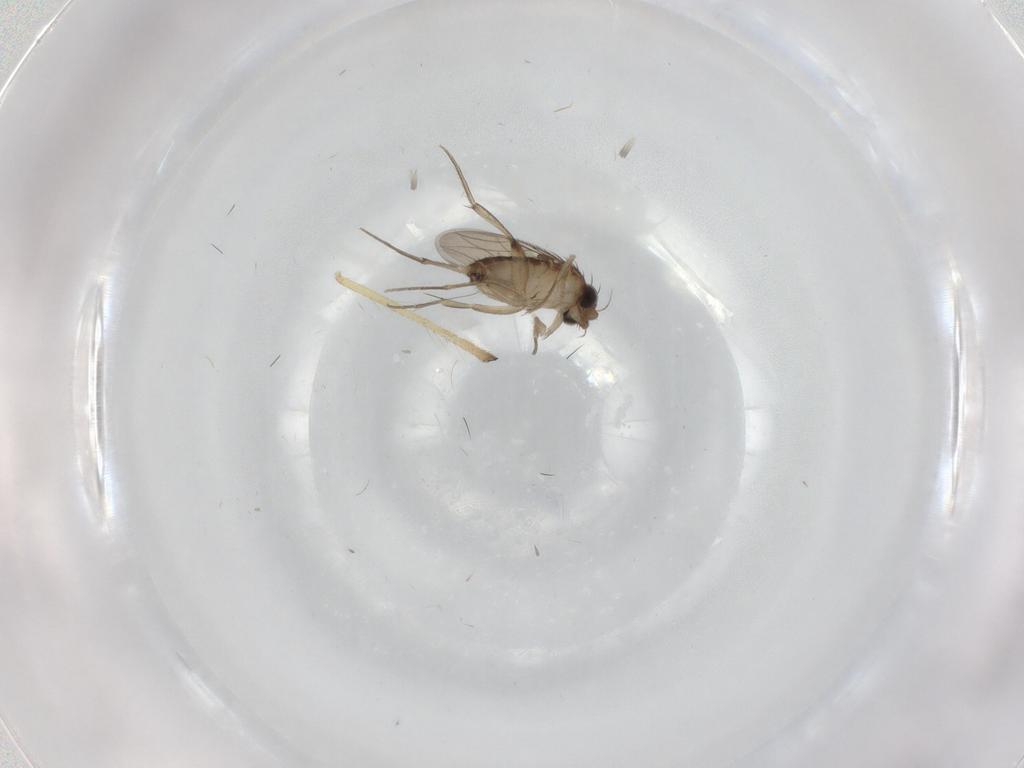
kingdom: Animalia
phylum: Arthropoda
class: Insecta
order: Diptera
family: Phoridae
